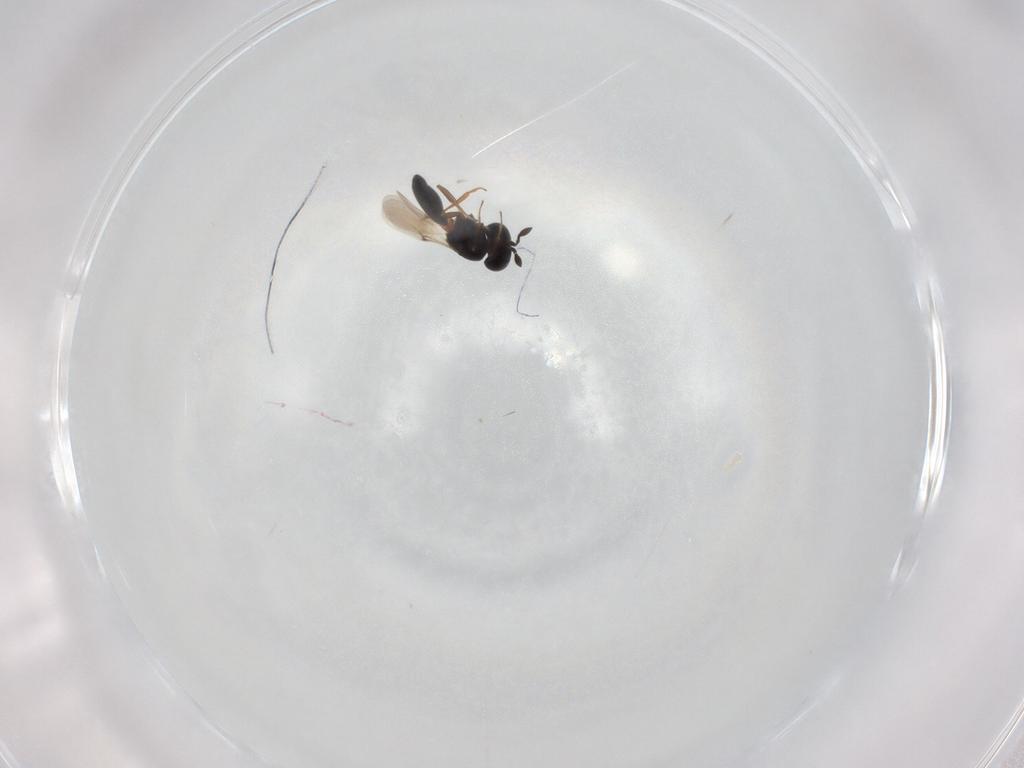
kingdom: Animalia
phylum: Arthropoda
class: Insecta
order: Hymenoptera
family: Scelionidae
